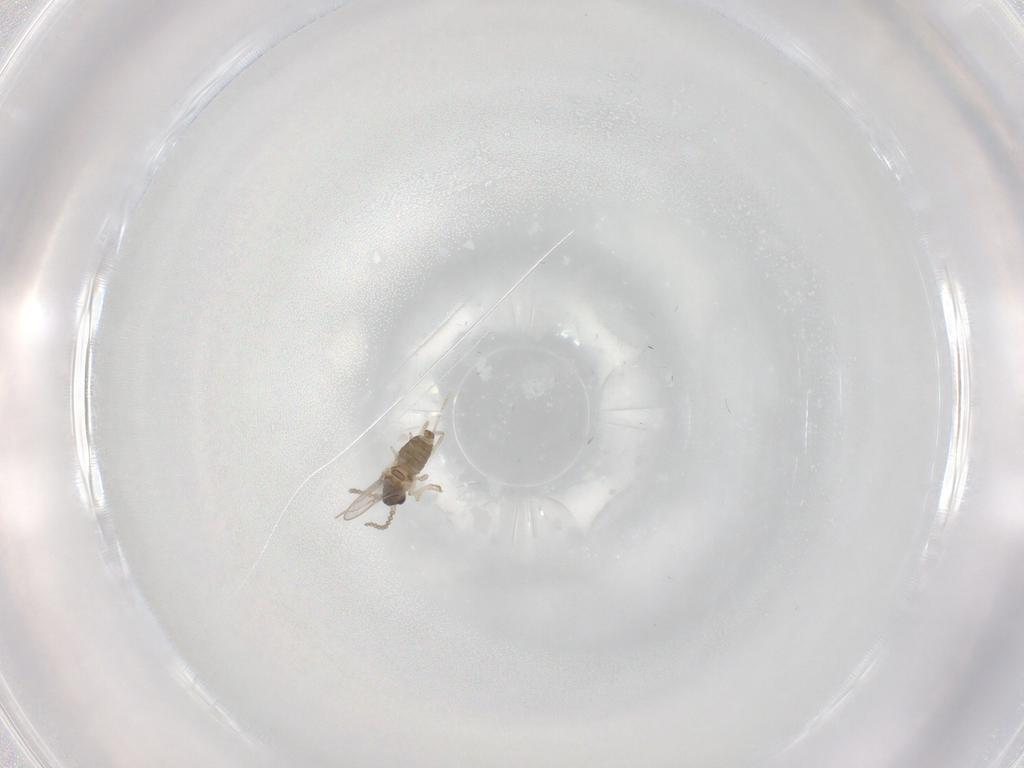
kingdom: Animalia
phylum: Arthropoda
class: Insecta
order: Diptera
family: Cecidomyiidae
